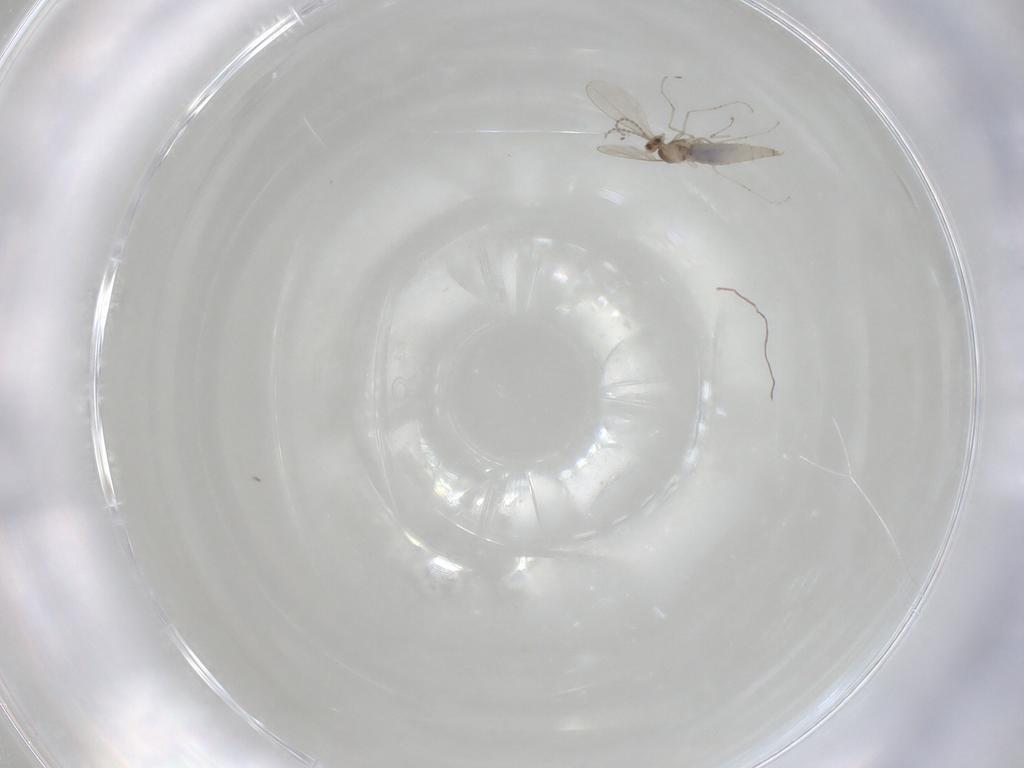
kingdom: Animalia
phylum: Arthropoda
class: Insecta
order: Diptera
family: Cecidomyiidae
